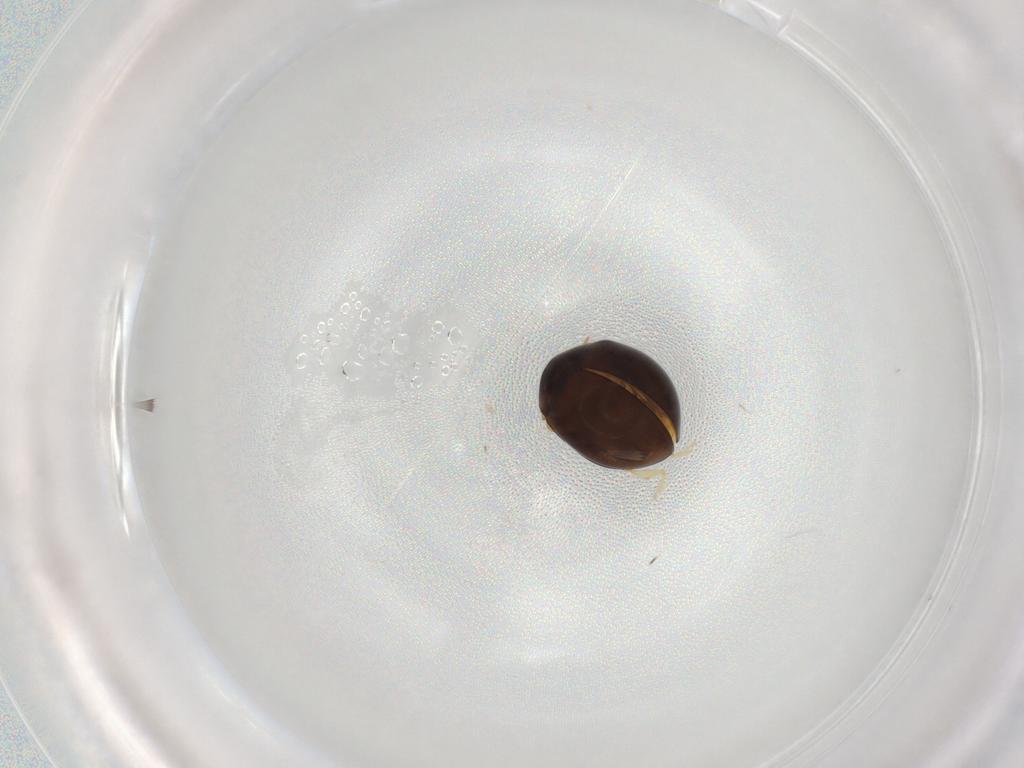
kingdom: Animalia
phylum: Arthropoda
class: Insecta
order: Coleoptera
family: Coccinellidae
